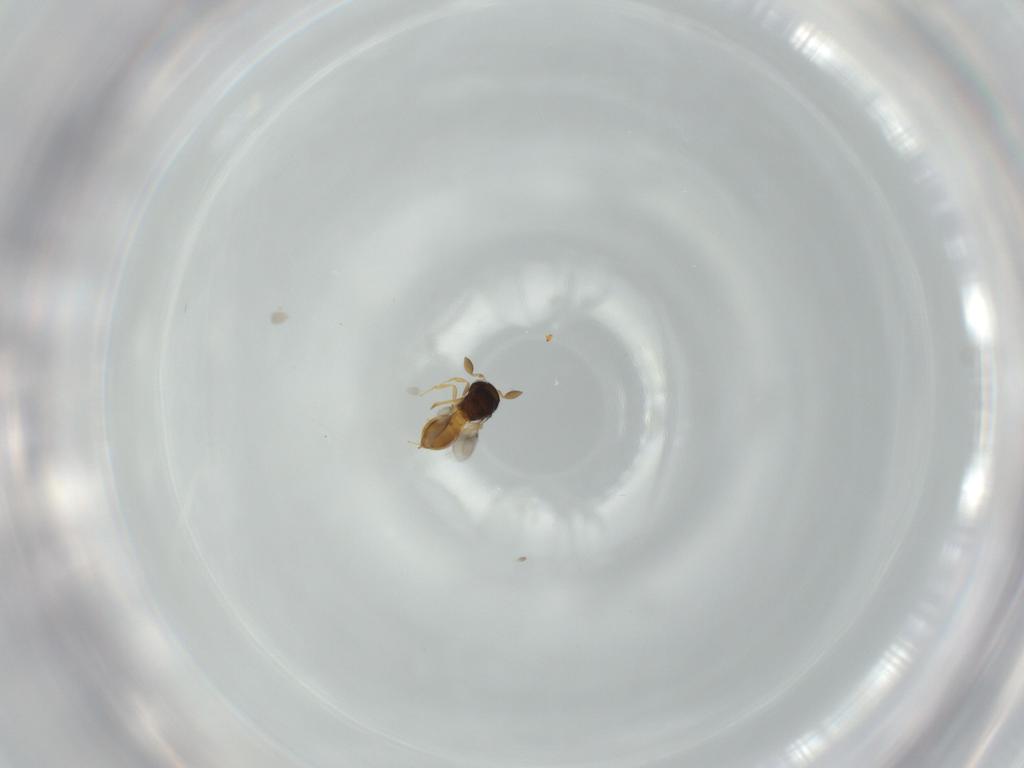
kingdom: Animalia
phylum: Arthropoda
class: Insecta
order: Hymenoptera
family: Scelionidae
